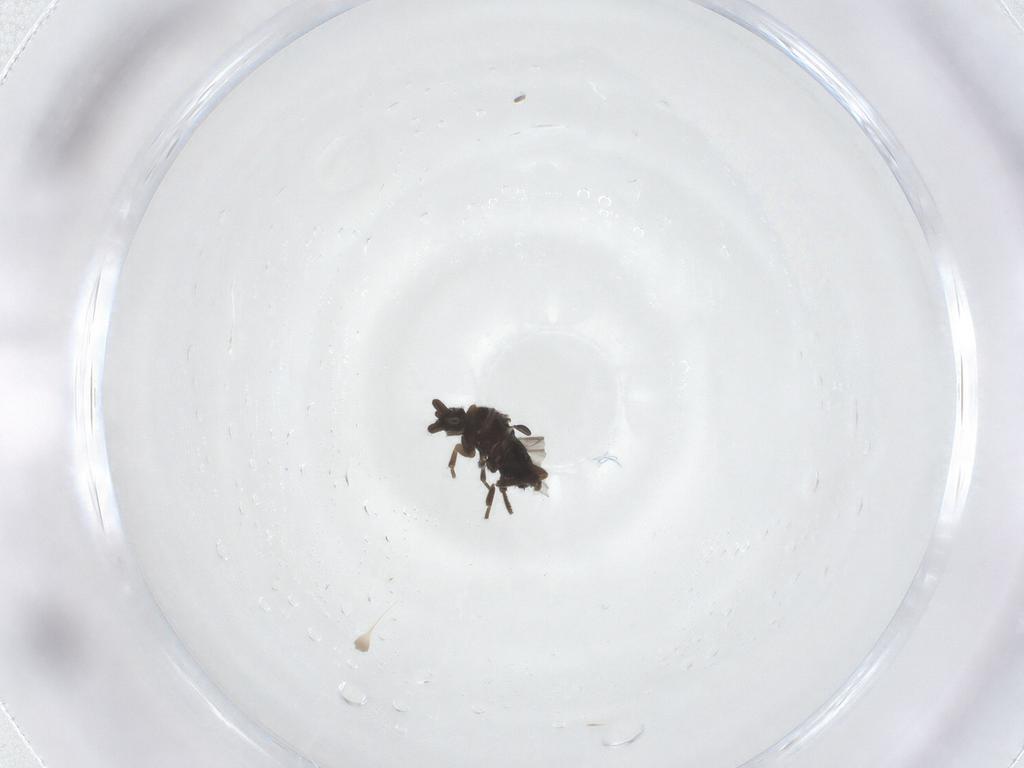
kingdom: Animalia
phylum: Arthropoda
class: Insecta
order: Diptera
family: Phoridae
